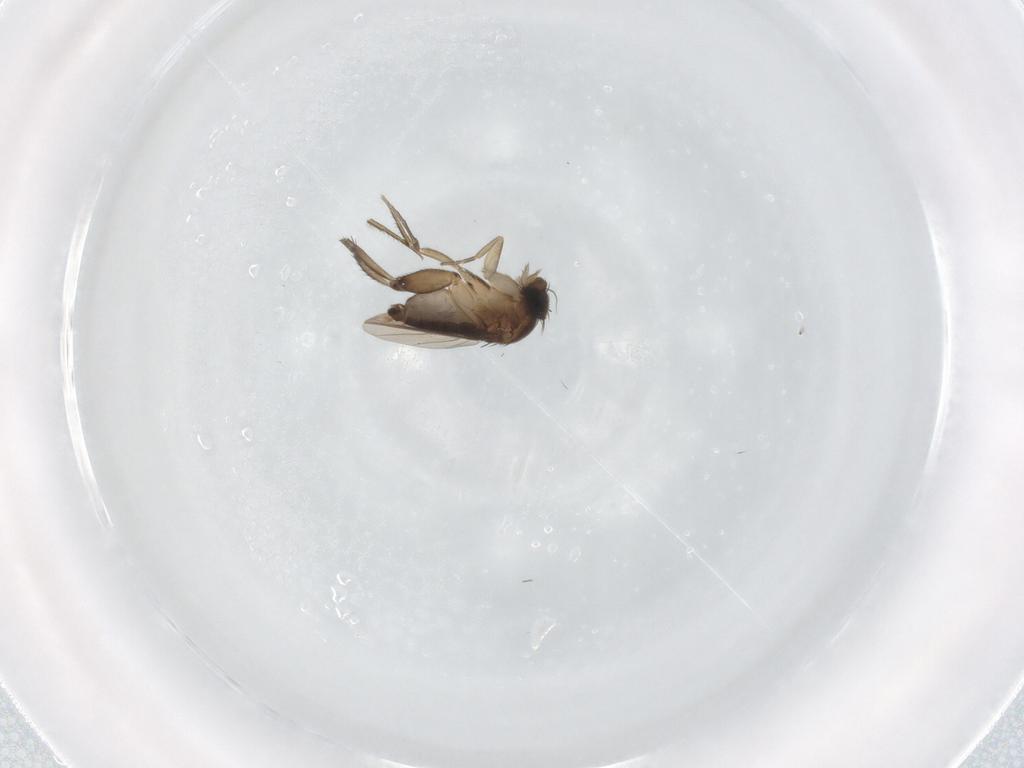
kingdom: Animalia
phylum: Arthropoda
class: Insecta
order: Diptera
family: Phoridae
